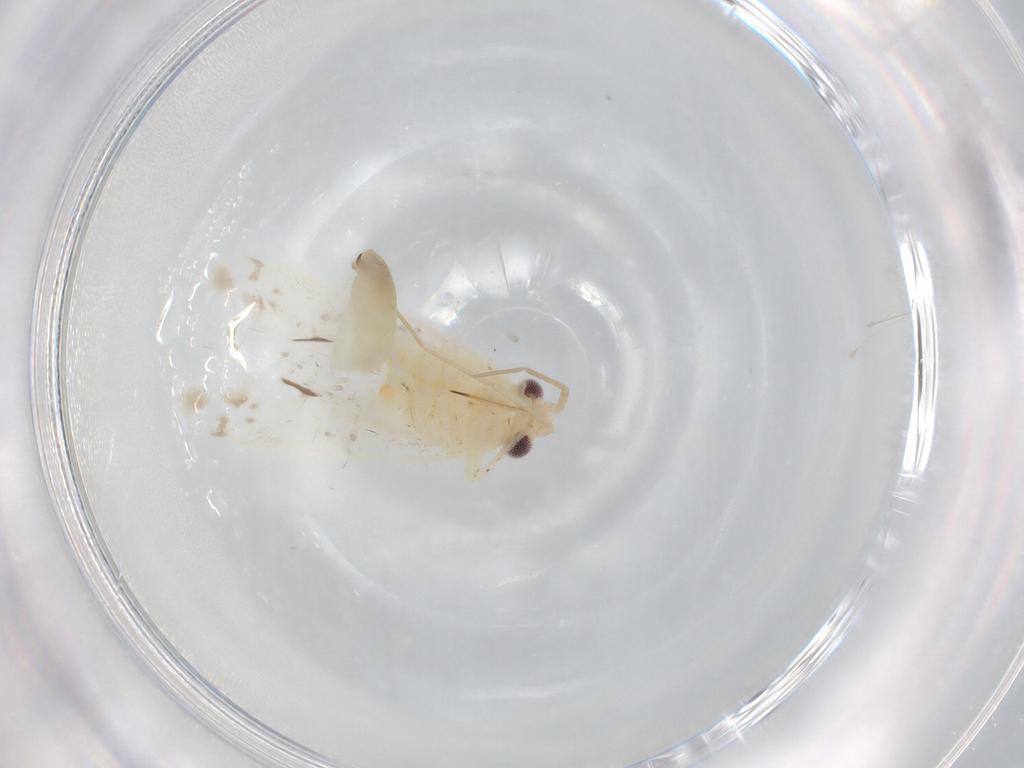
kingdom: Animalia
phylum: Arthropoda
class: Insecta
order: Hemiptera
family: Miridae
